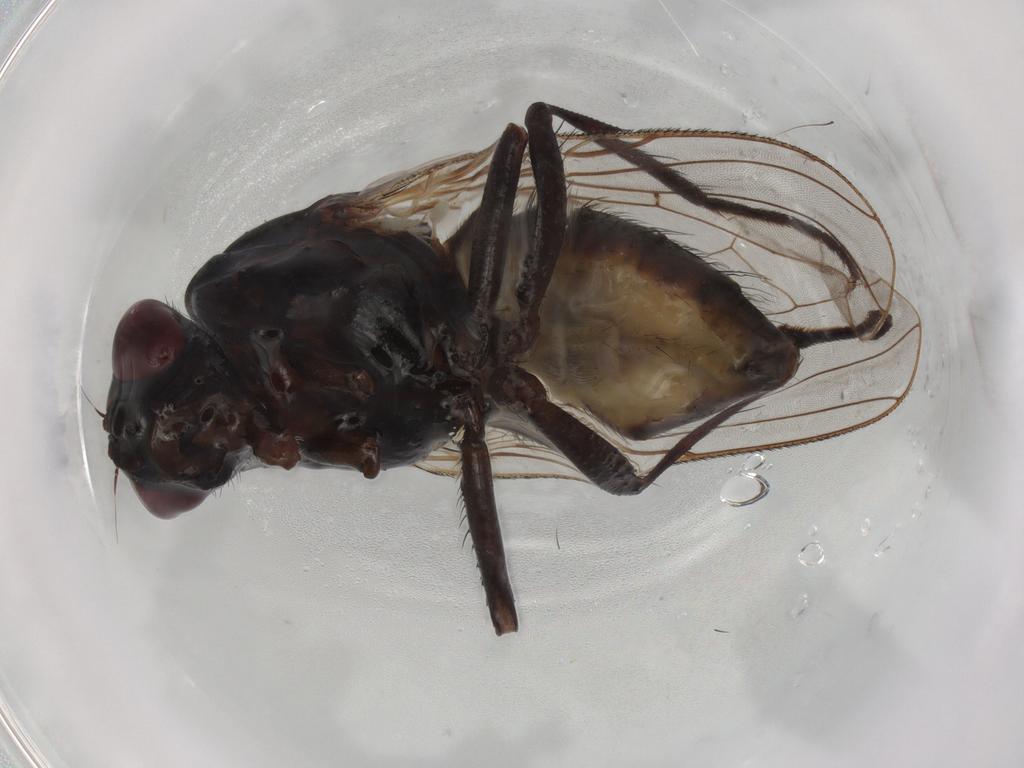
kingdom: Animalia
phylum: Arthropoda
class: Insecta
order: Diptera
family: Anthomyiidae
